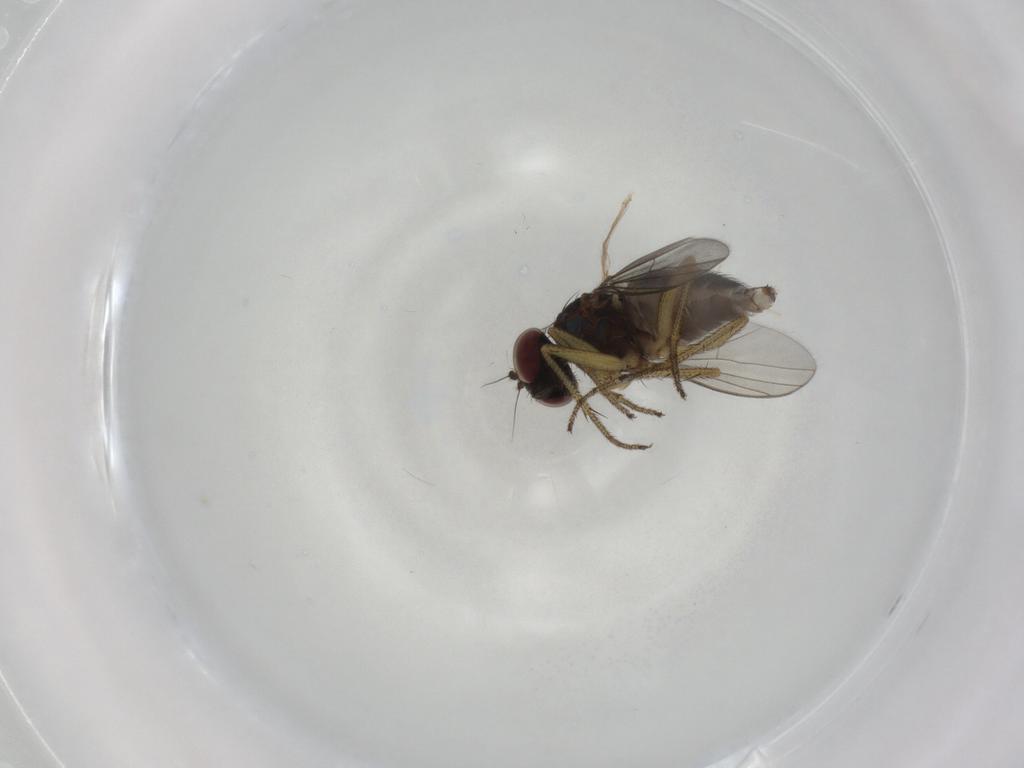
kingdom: Animalia
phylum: Arthropoda
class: Insecta
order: Diptera
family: Dolichopodidae
